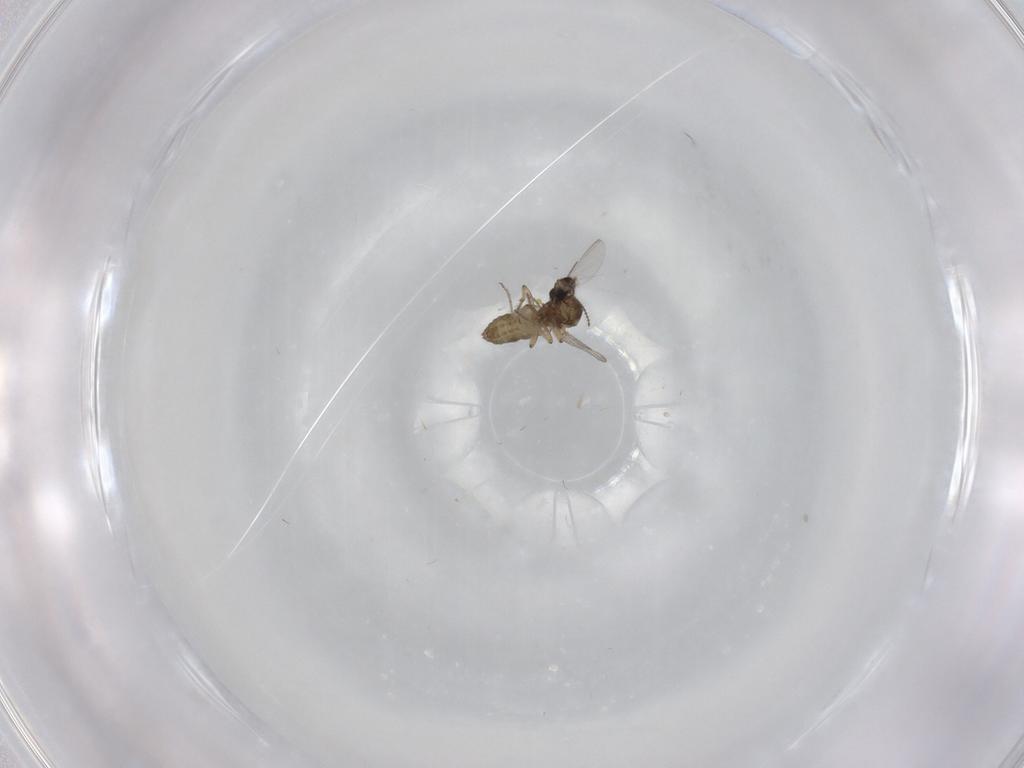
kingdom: Animalia
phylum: Arthropoda
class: Insecta
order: Diptera
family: Ceratopogonidae
